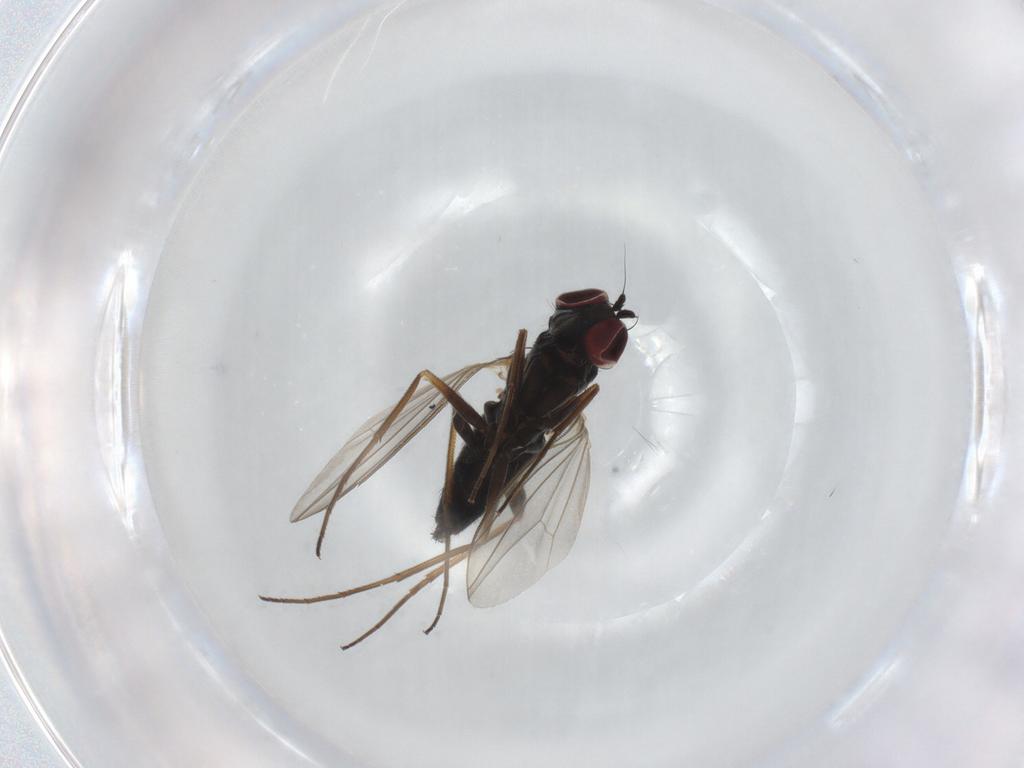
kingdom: Animalia
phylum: Arthropoda
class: Insecta
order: Diptera
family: Dolichopodidae
